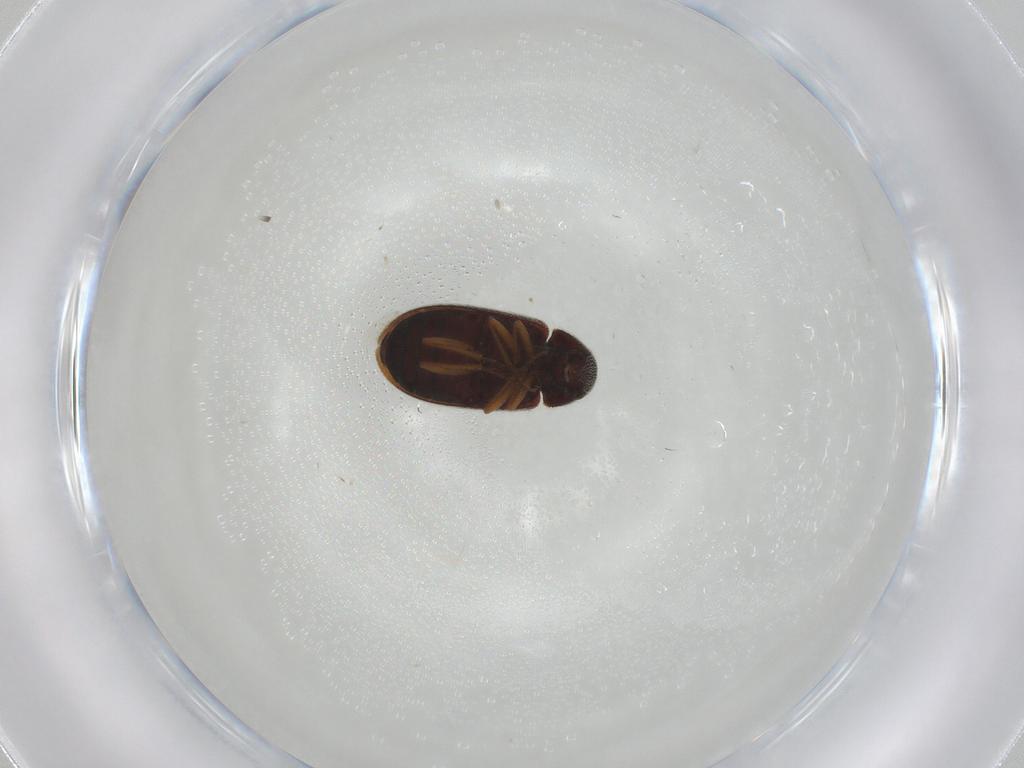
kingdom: Animalia
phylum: Arthropoda
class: Insecta
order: Coleoptera
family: Rhadalidae
